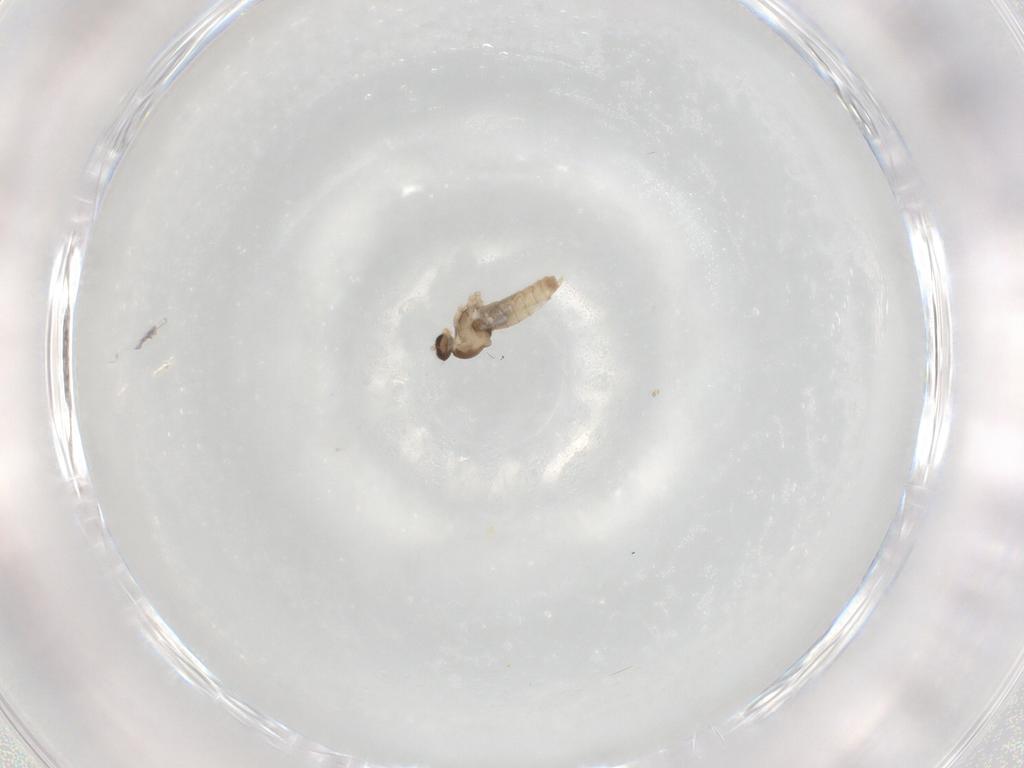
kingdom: Animalia
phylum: Arthropoda
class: Insecta
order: Diptera
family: Cecidomyiidae
